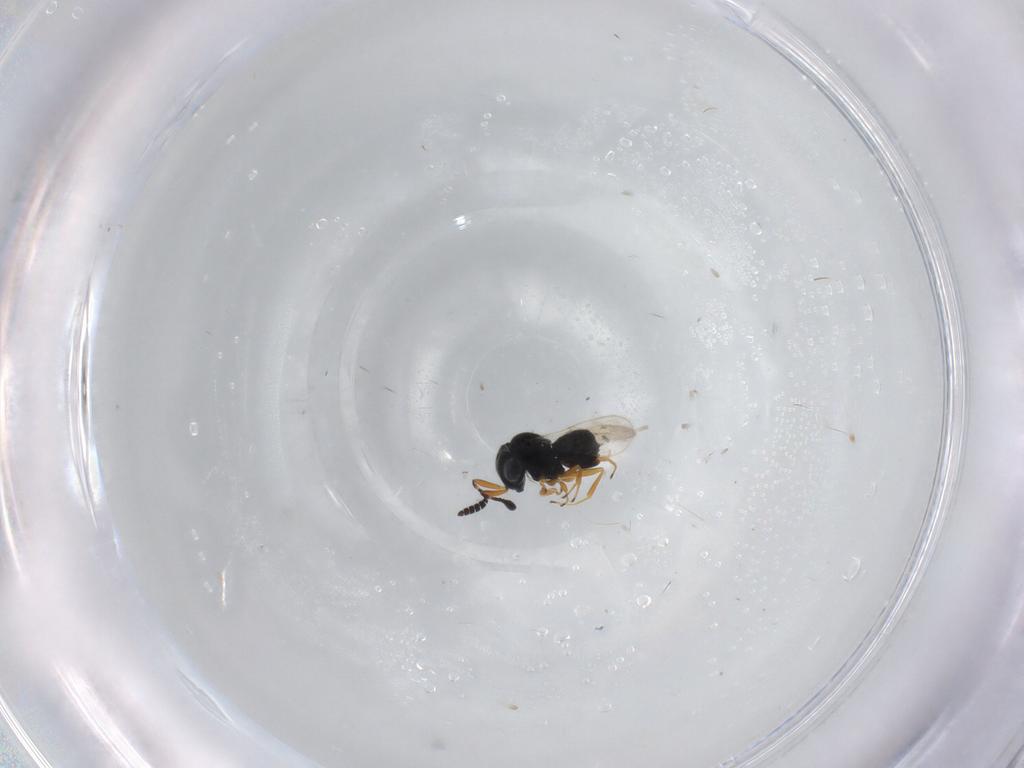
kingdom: Animalia
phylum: Arthropoda
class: Insecta
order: Hymenoptera
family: Scelionidae
